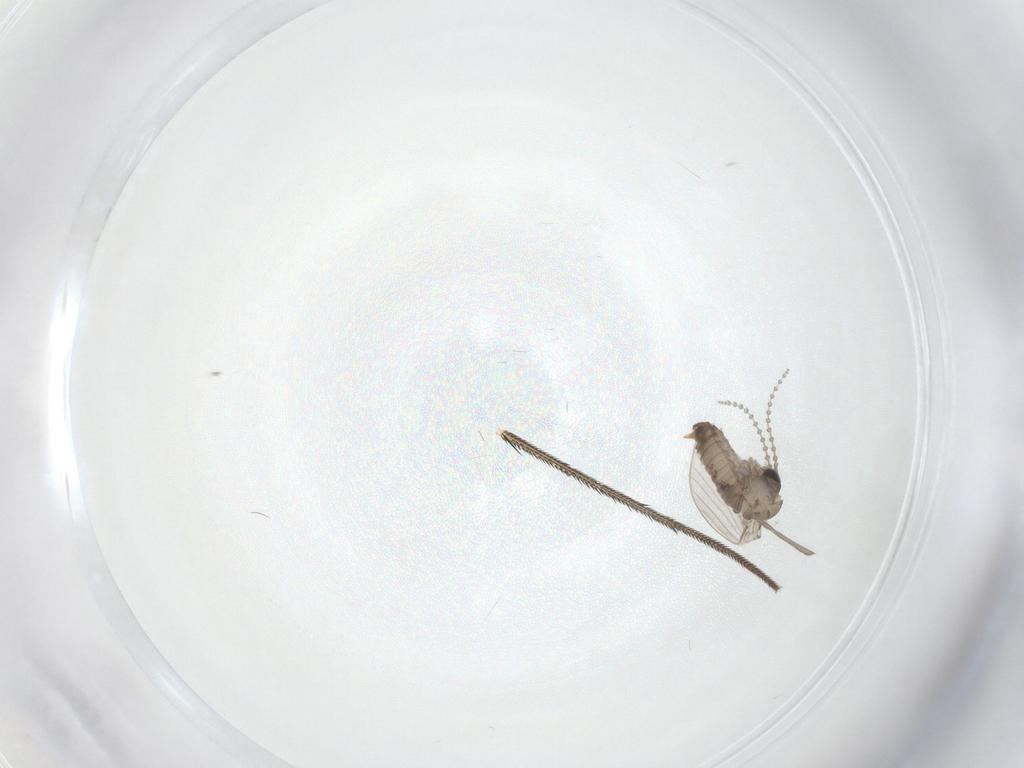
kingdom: Animalia
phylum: Arthropoda
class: Insecta
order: Diptera
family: Psychodidae
